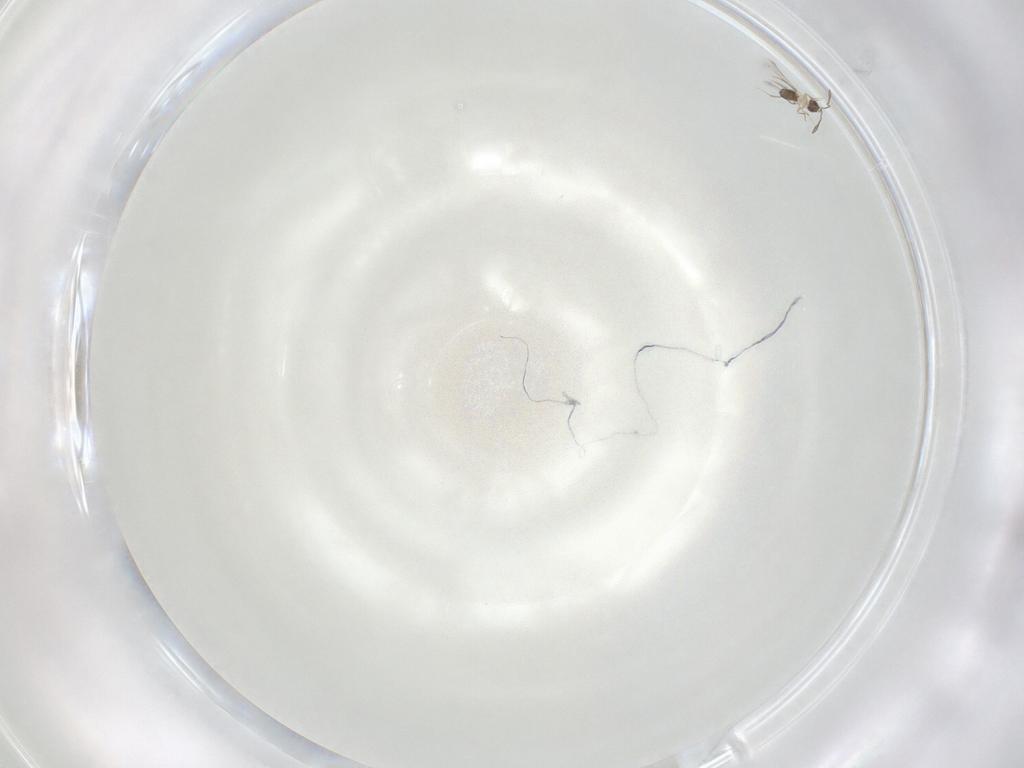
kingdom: Animalia
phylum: Arthropoda
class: Insecta
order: Hymenoptera
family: Mymaridae
